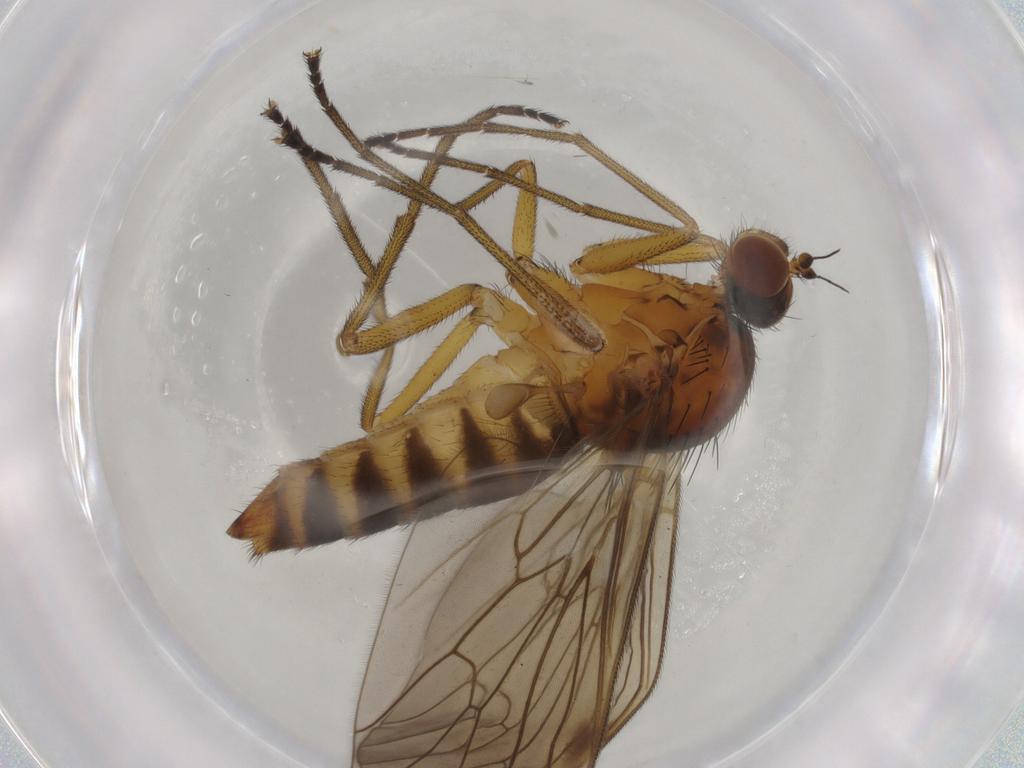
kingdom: Animalia
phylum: Arthropoda
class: Insecta
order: Diptera
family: Brachystomatidae
